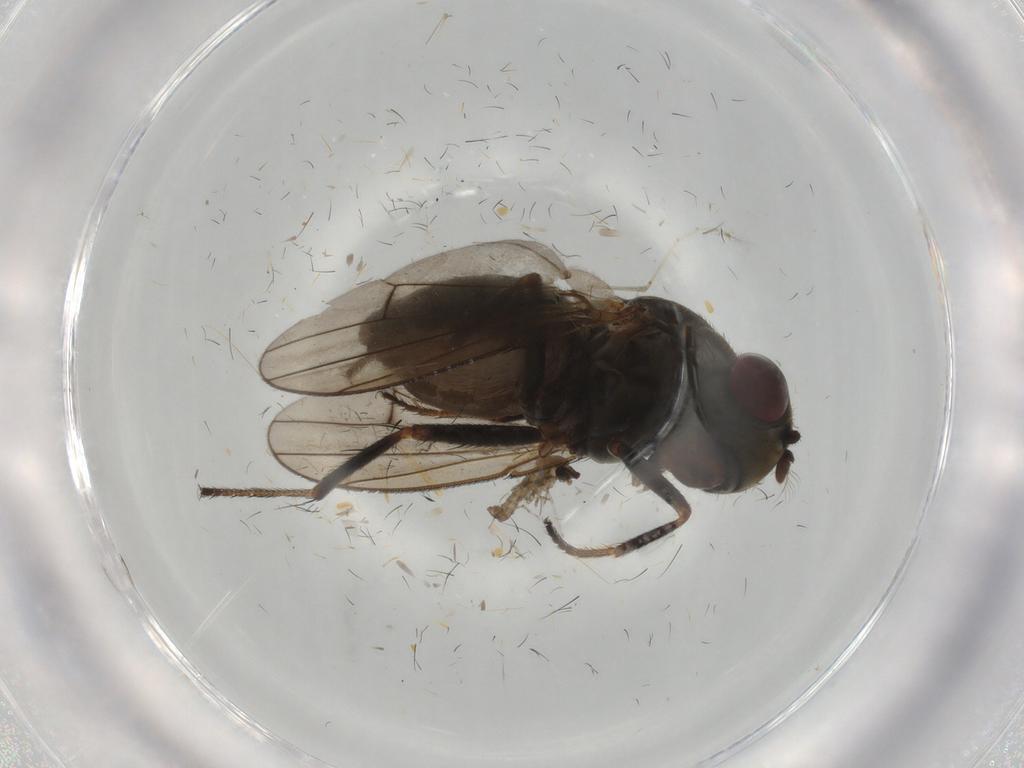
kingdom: Animalia
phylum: Arthropoda
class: Insecta
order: Diptera
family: Ephydridae
